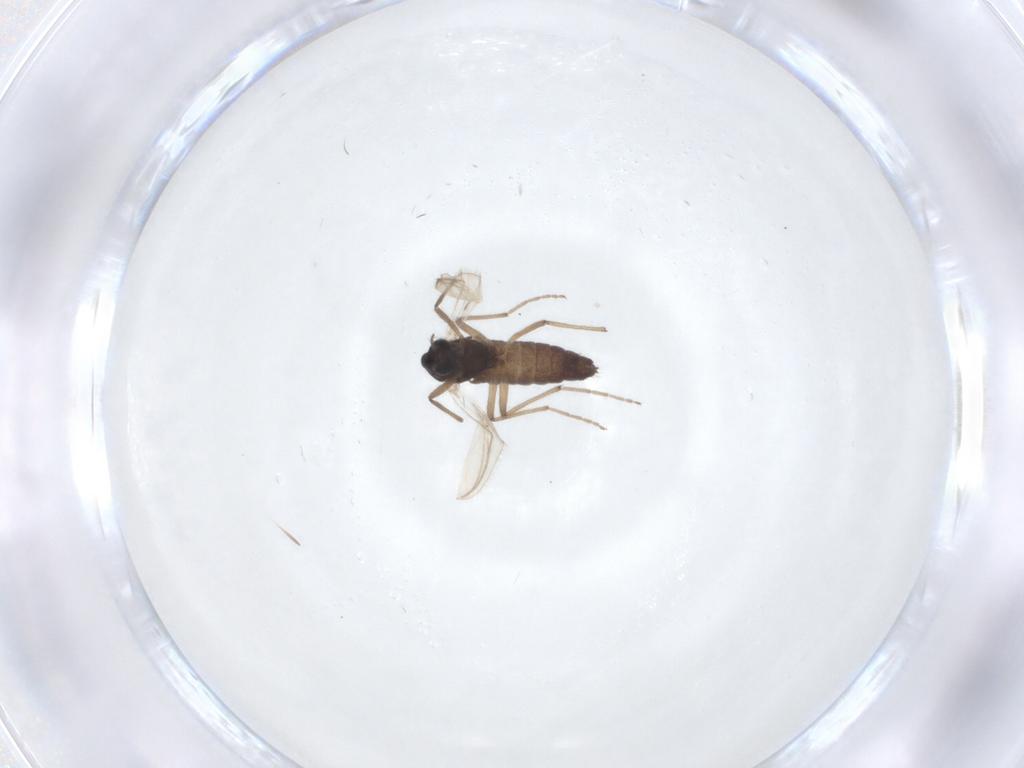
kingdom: Animalia
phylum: Arthropoda
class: Insecta
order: Diptera
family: Chironomidae
